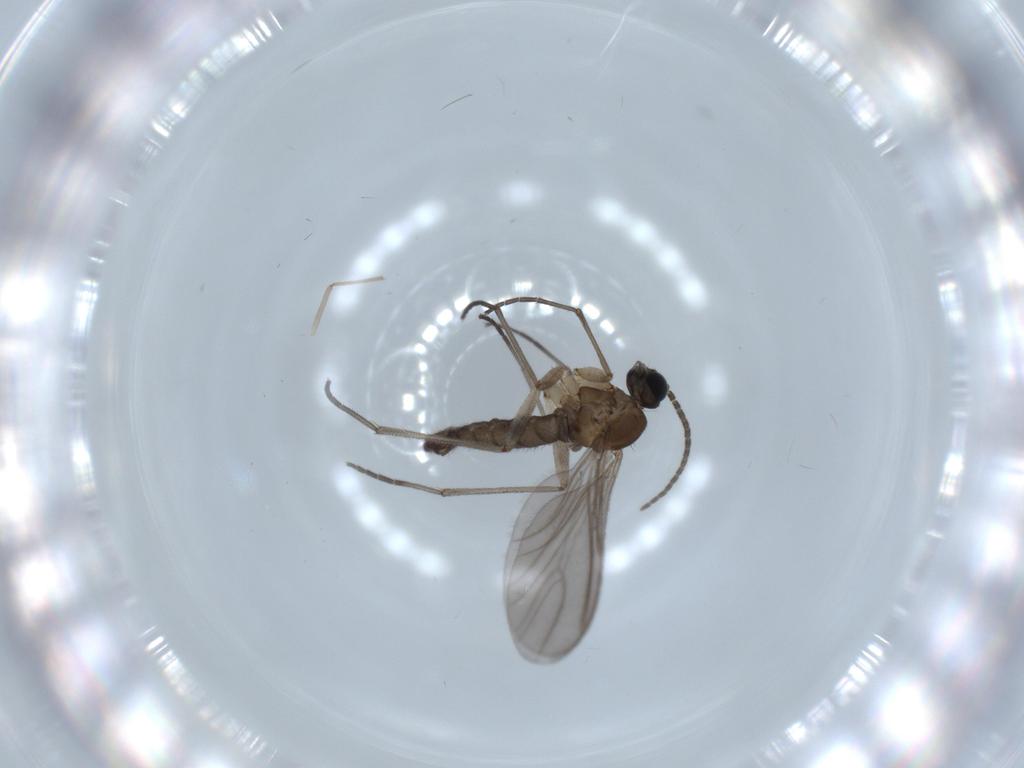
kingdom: Animalia
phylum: Arthropoda
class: Insecta
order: Diptera
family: Sciaridae
